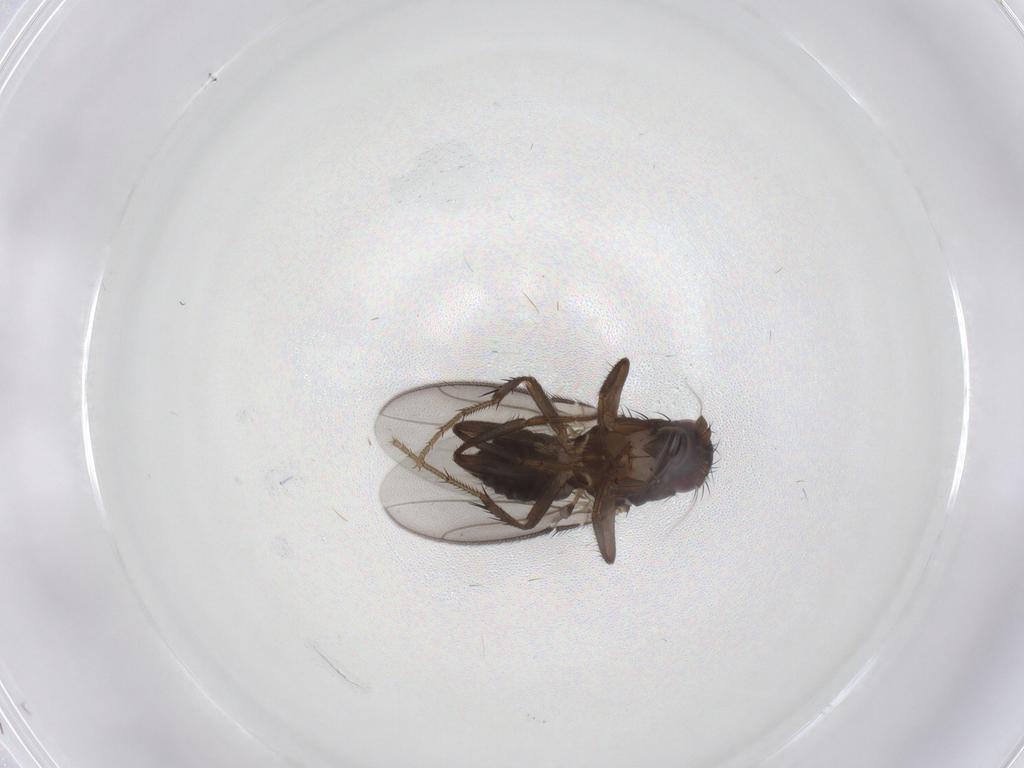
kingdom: Animalia
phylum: Arthropoda
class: Insecta
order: Diptera
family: Sphaeroceridae
